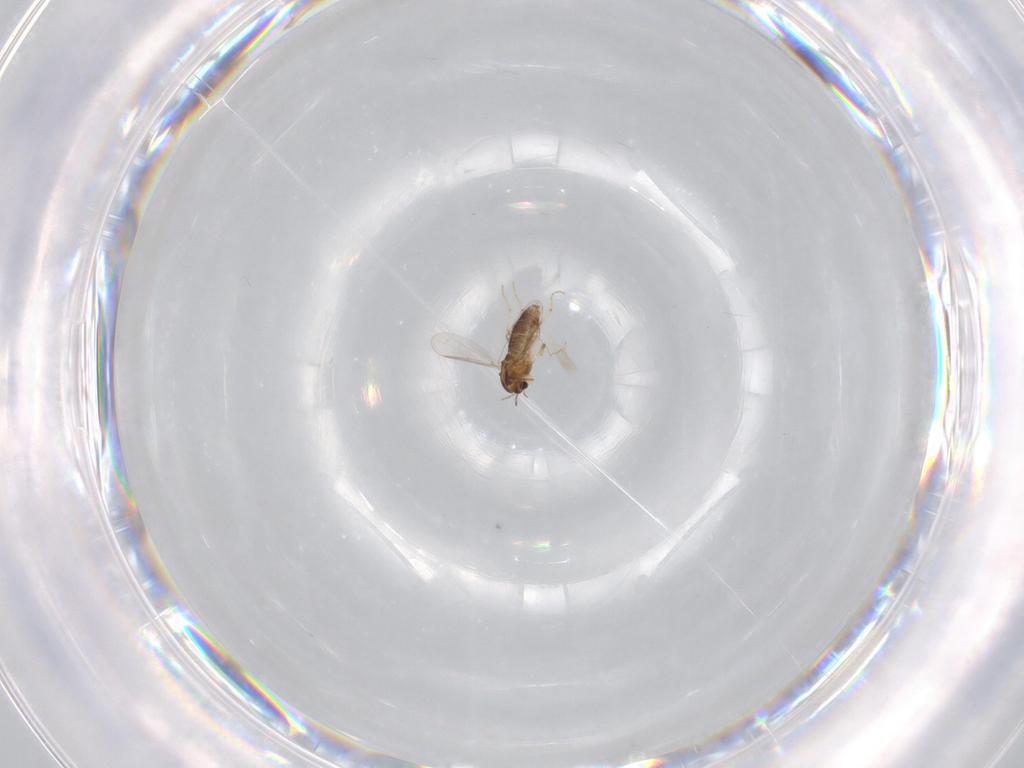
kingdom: Animalia
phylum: Arthropoda
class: Insecta
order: Diptera
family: Chironomidae
